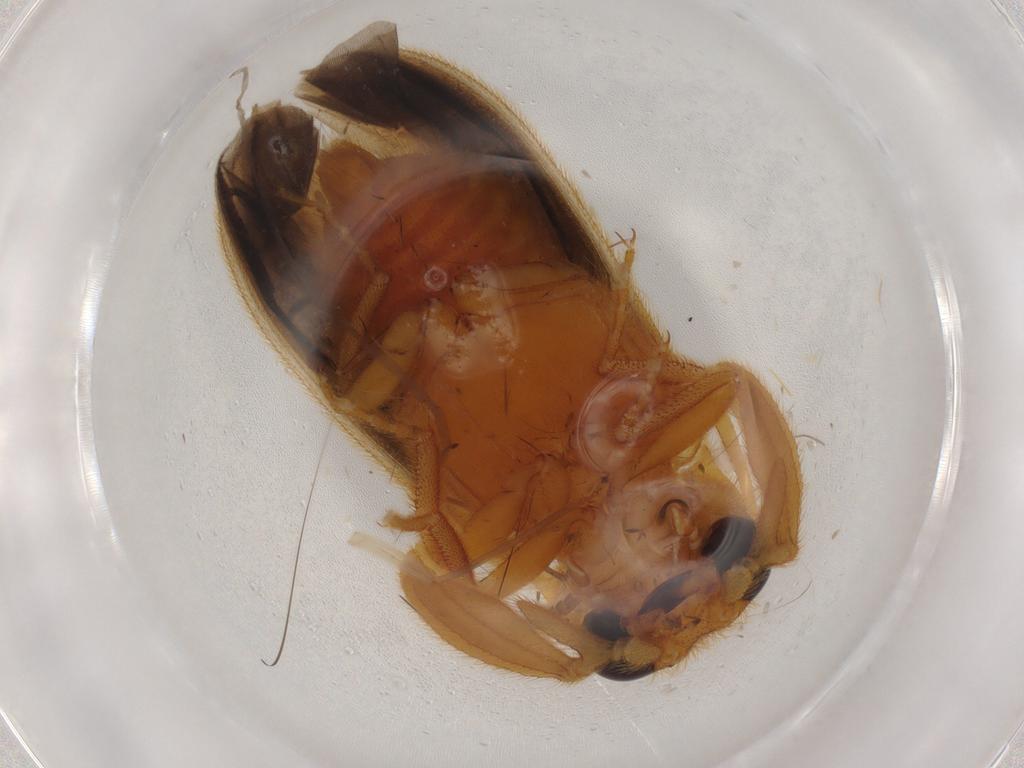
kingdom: Animalia
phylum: Arthropoda
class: Insecta
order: Coleoptera
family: Elateridae
